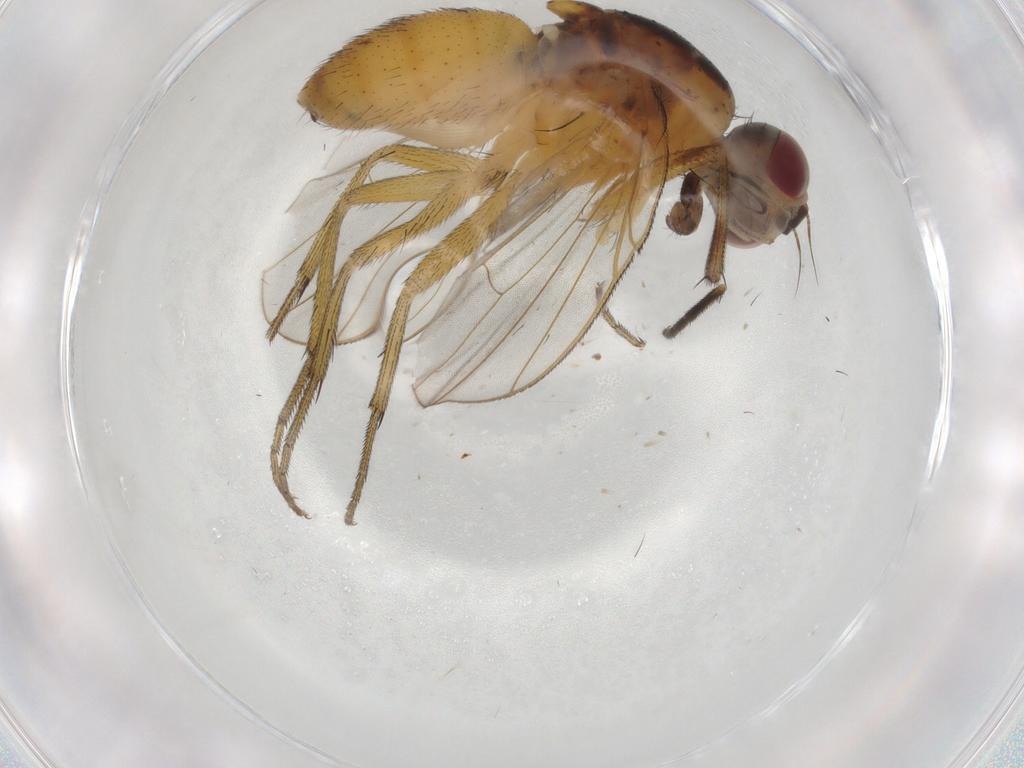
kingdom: Animalia
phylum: Arthropoda
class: Insecta
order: Diptera
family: Muscidae
